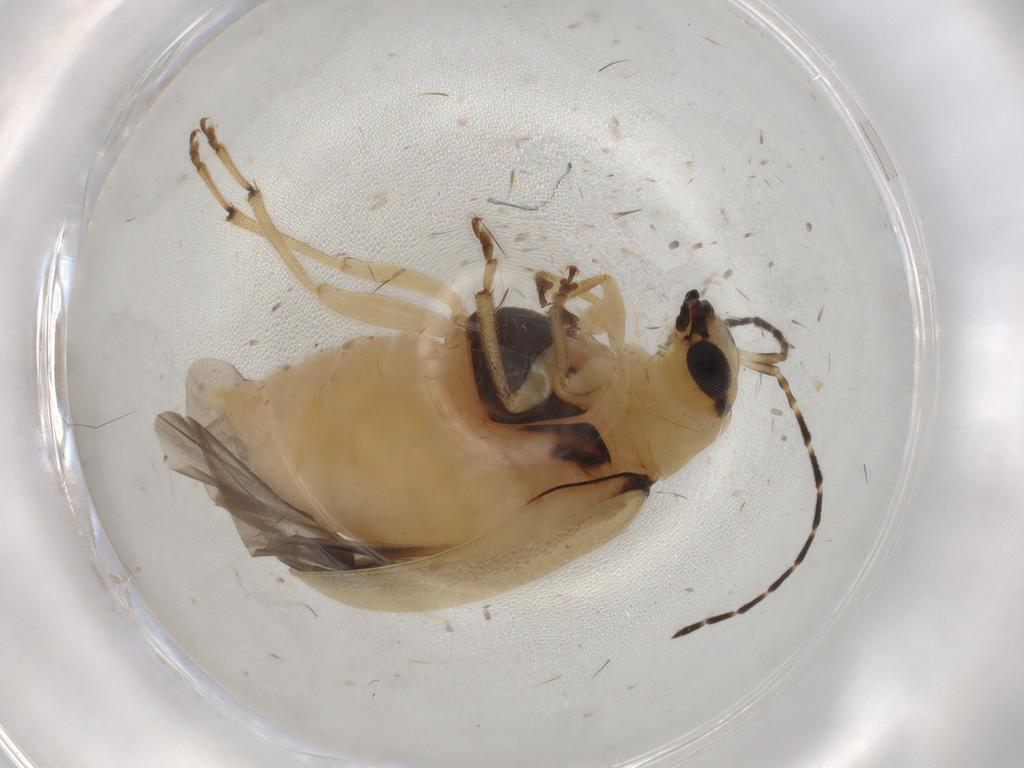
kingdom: Animalia
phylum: Arthropoda
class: Insecta
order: Coleoptera
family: Chrysomelidae
